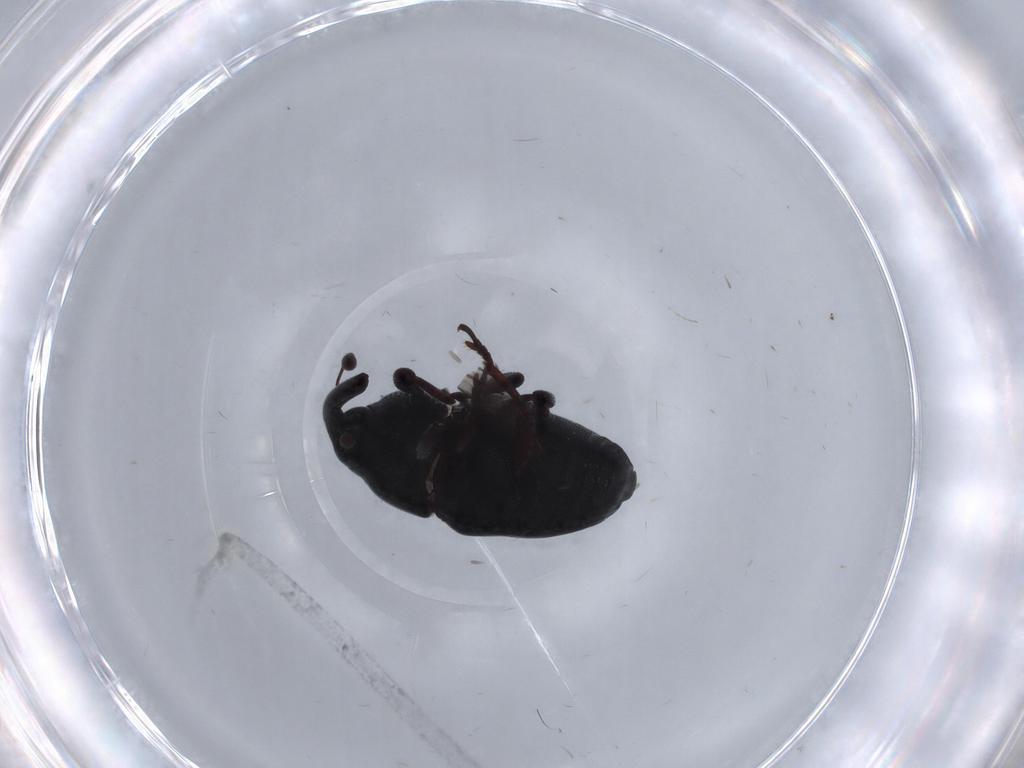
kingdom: Animalia
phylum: Arthropoda
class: Insecta
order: Coleoptera
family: Curculionidae
